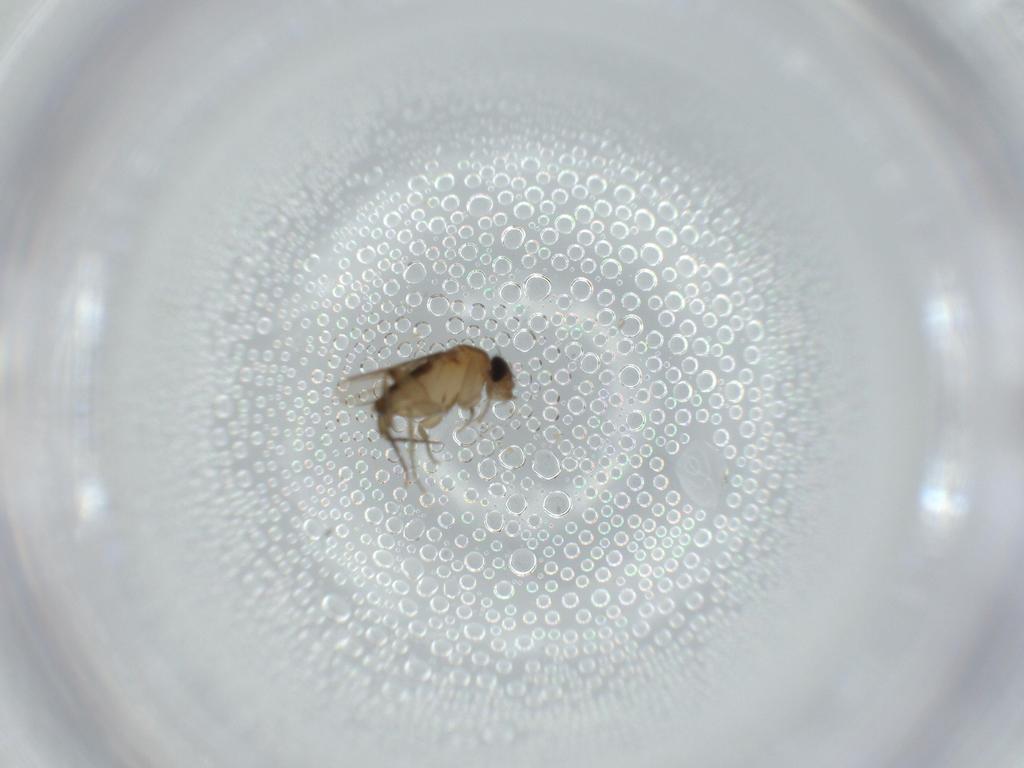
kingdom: Animalia
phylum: Arthropoda
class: Insecta
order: Diptera
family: Phoridae
